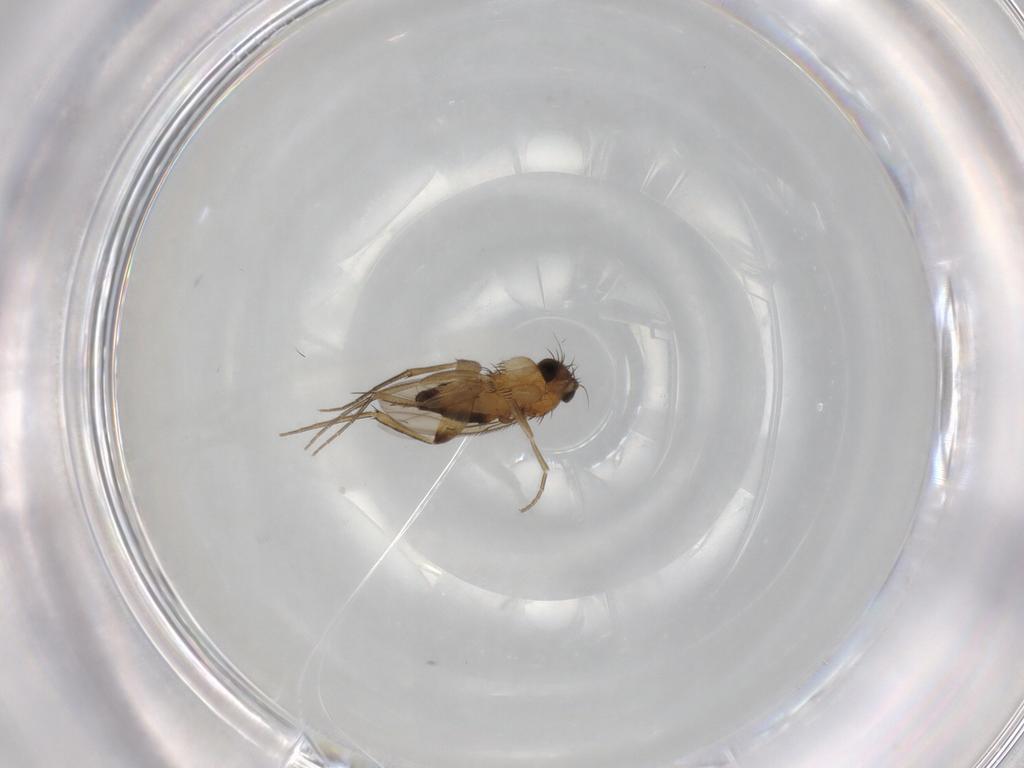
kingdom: Animalia
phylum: Arthropoda
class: Insecta
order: Diptera
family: Phoridae
